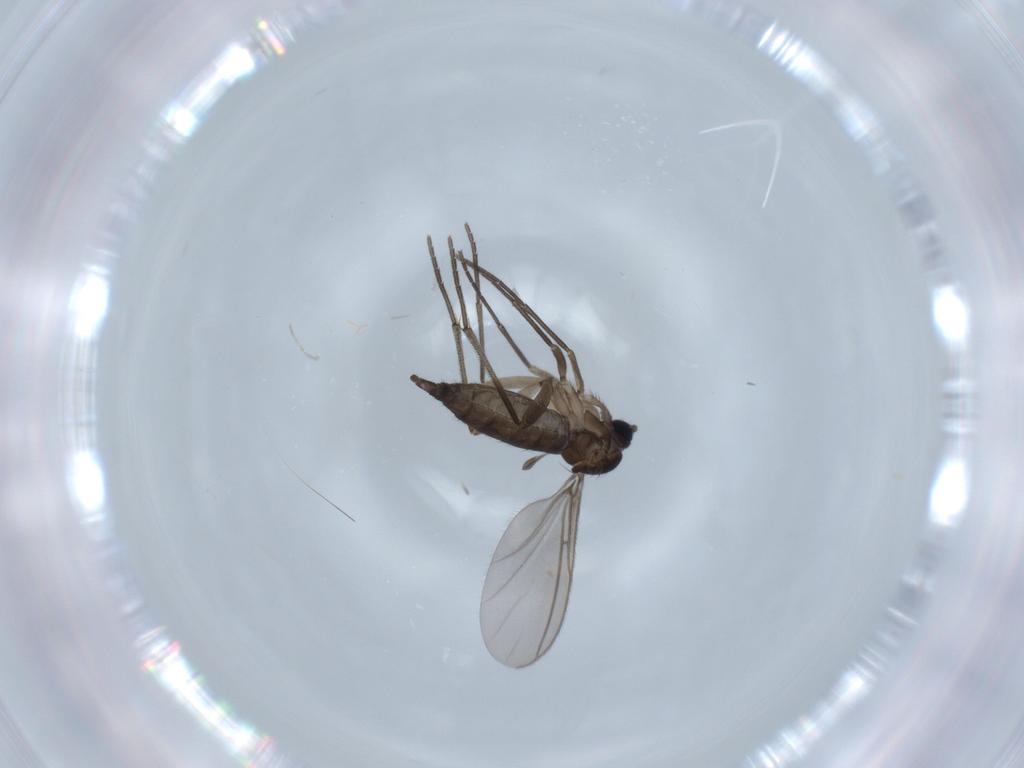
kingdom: Animalia
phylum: Arthropoda
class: Insecta
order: Diptera
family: Sciaridae
